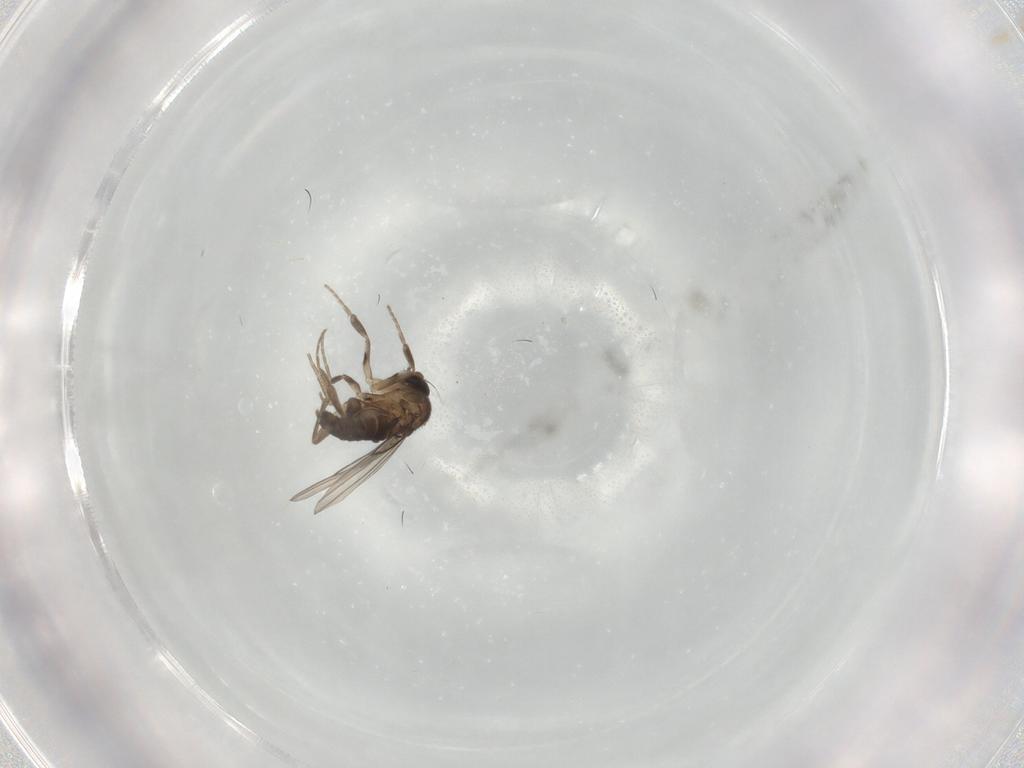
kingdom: Animalia
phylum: Arthropoda
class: Insecta
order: Diptera
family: Phoridae
